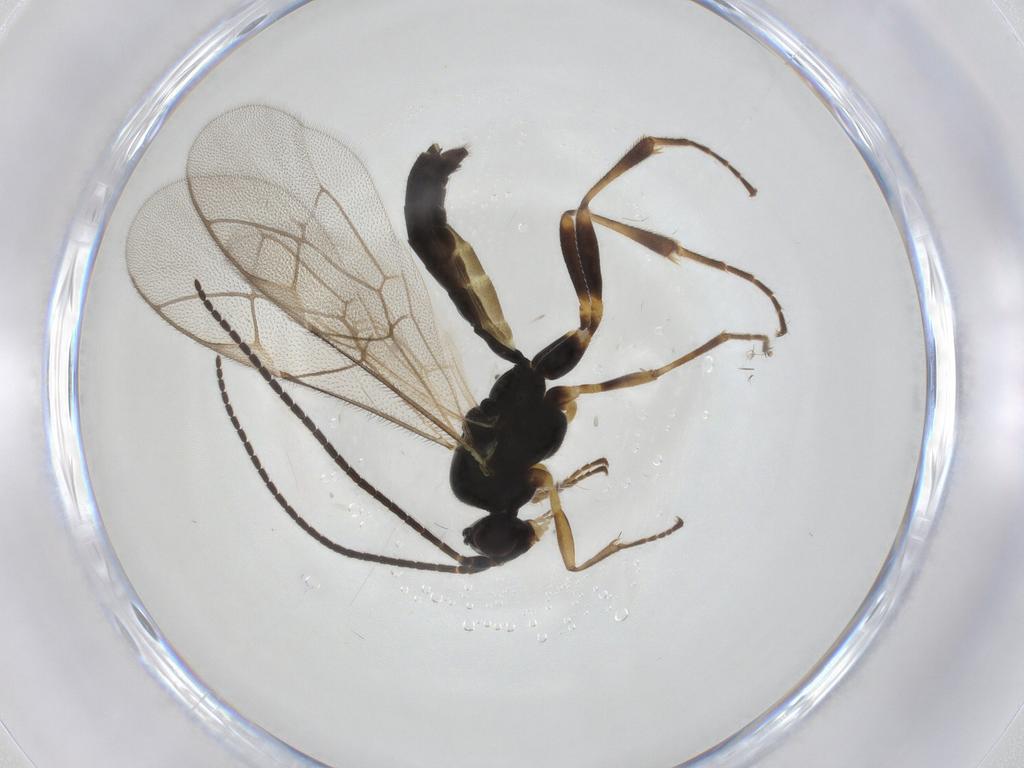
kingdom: Animalia
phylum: Arthropoda
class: Insecta
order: Hymenoptera
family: Ichneumonidae
